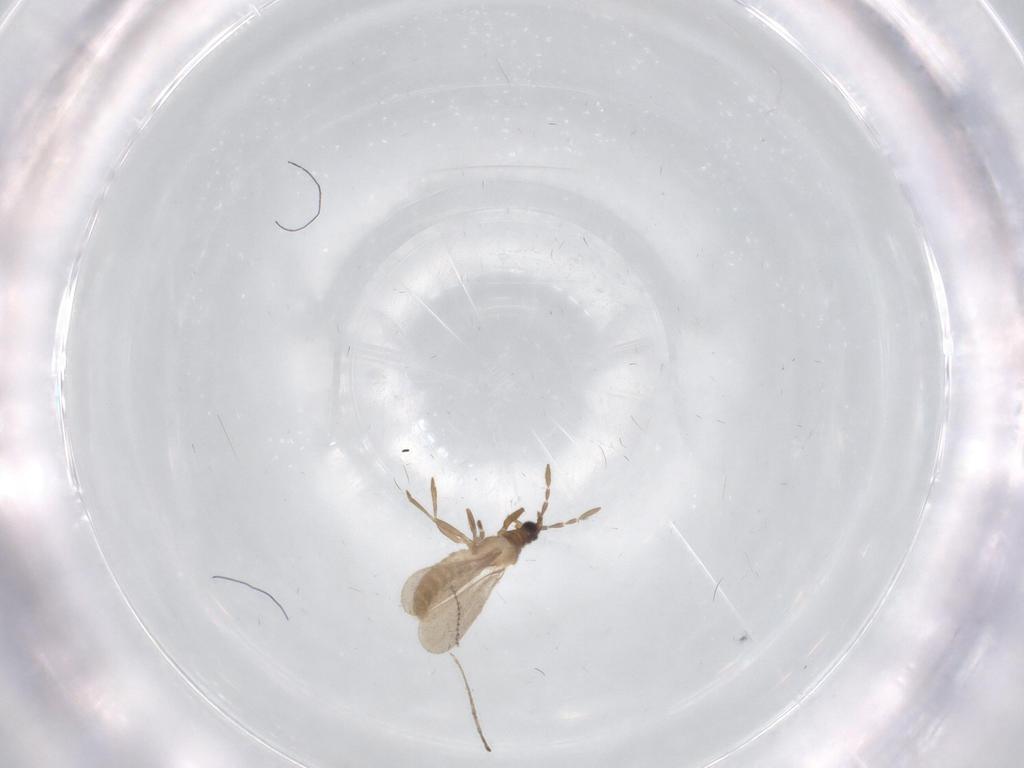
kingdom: Animalia
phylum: Arthropoda
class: Insecta
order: Hemiptera
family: Enicocephalidae
